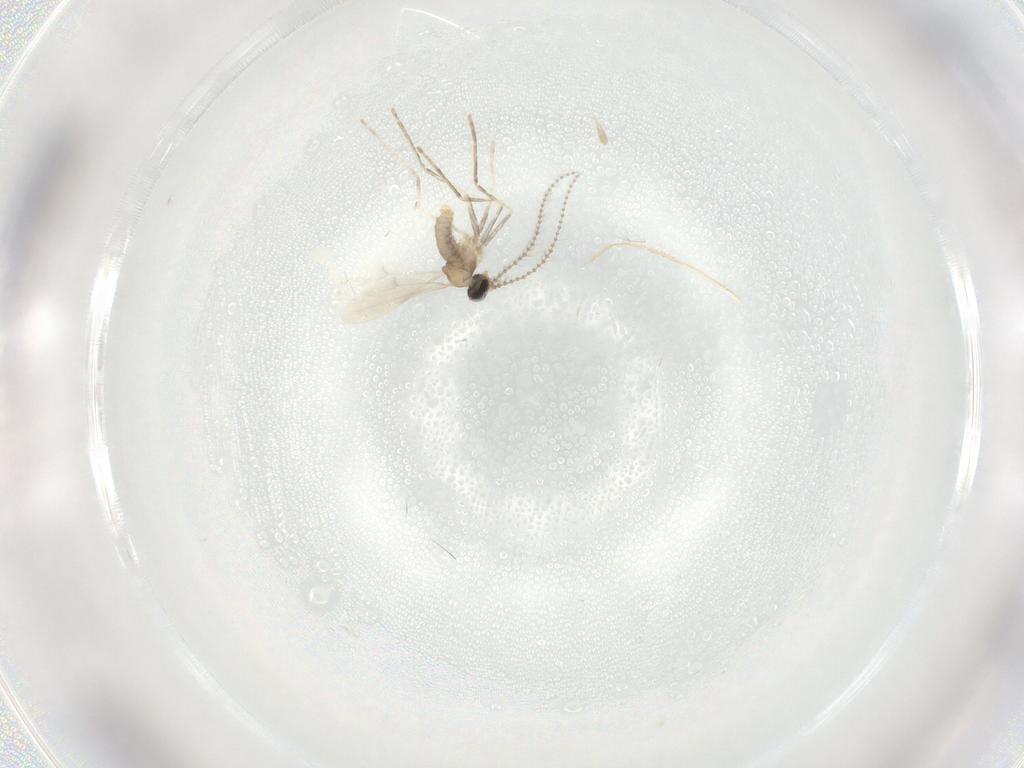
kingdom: Animalia
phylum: Arthropoda
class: Insecta
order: Diptera
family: Cecidomyiidae
